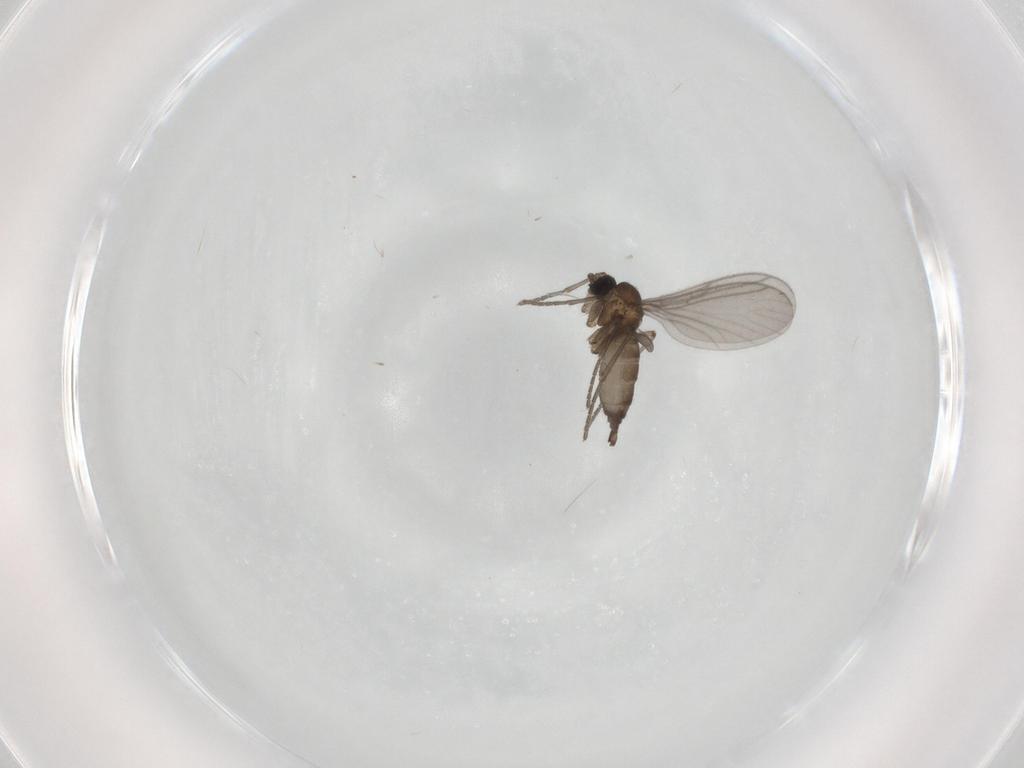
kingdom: Animalia
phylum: Arthropoda
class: Insecta
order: Diptera
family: Sciaridae
